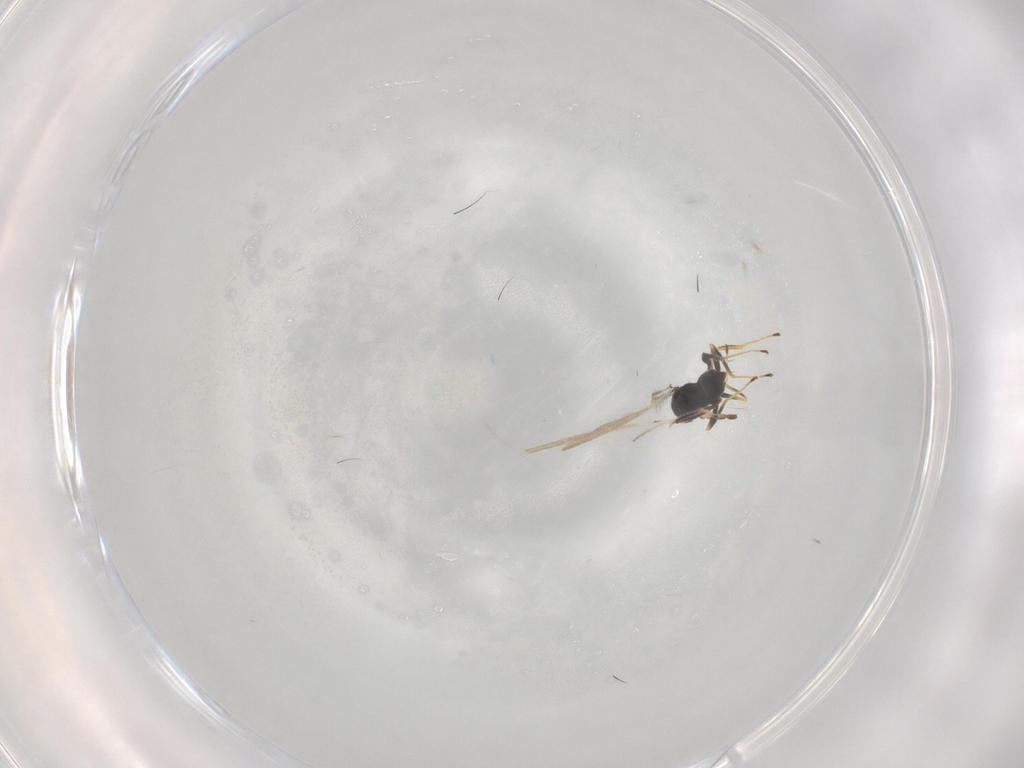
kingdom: Animalia
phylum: Arthropoda
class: Insecta
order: Hymenoptera
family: Mymaridae
